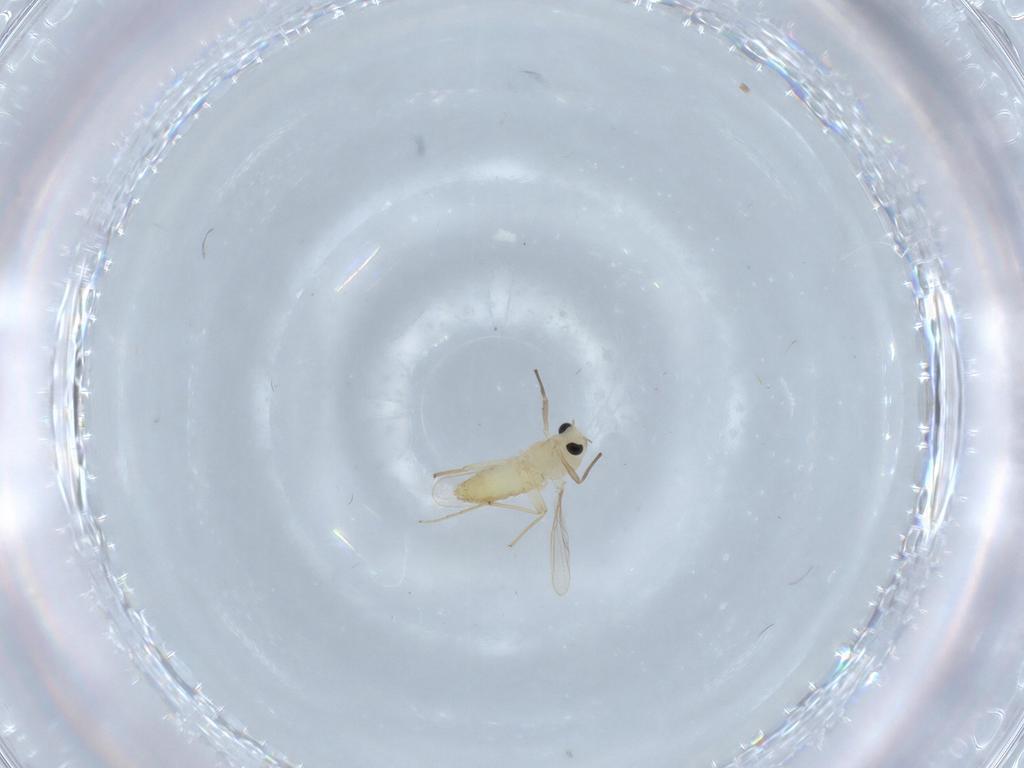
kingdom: Animalia
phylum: Arthropoda
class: Insecta
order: Diptera
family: Chironomidae
